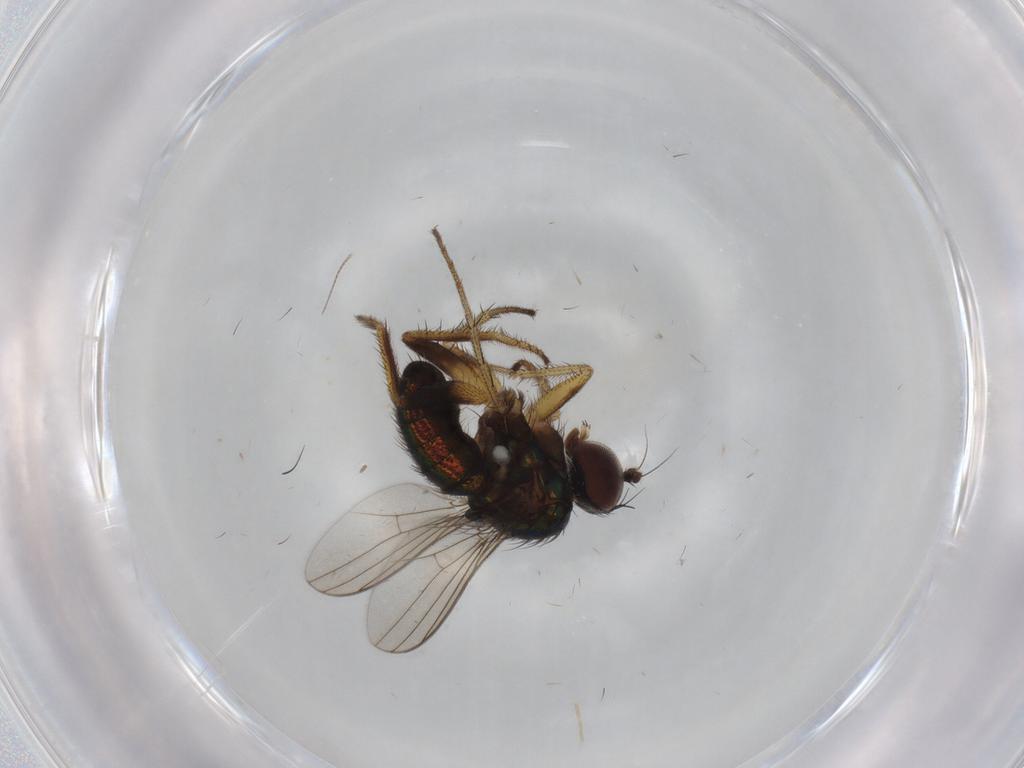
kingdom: Animalia
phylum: Arthropoda
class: Insecta
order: Diptera
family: Dolichopodidae
